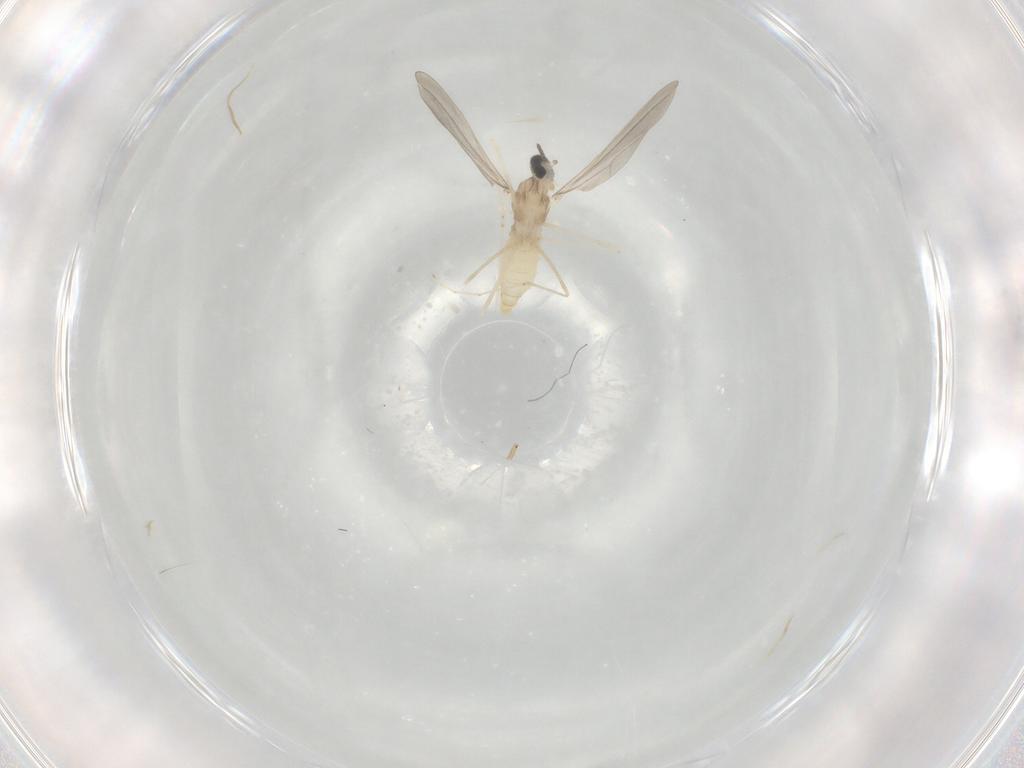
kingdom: Animalia
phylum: Arthropoda
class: Insecta
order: Diptera
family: Cecidomyiidae
